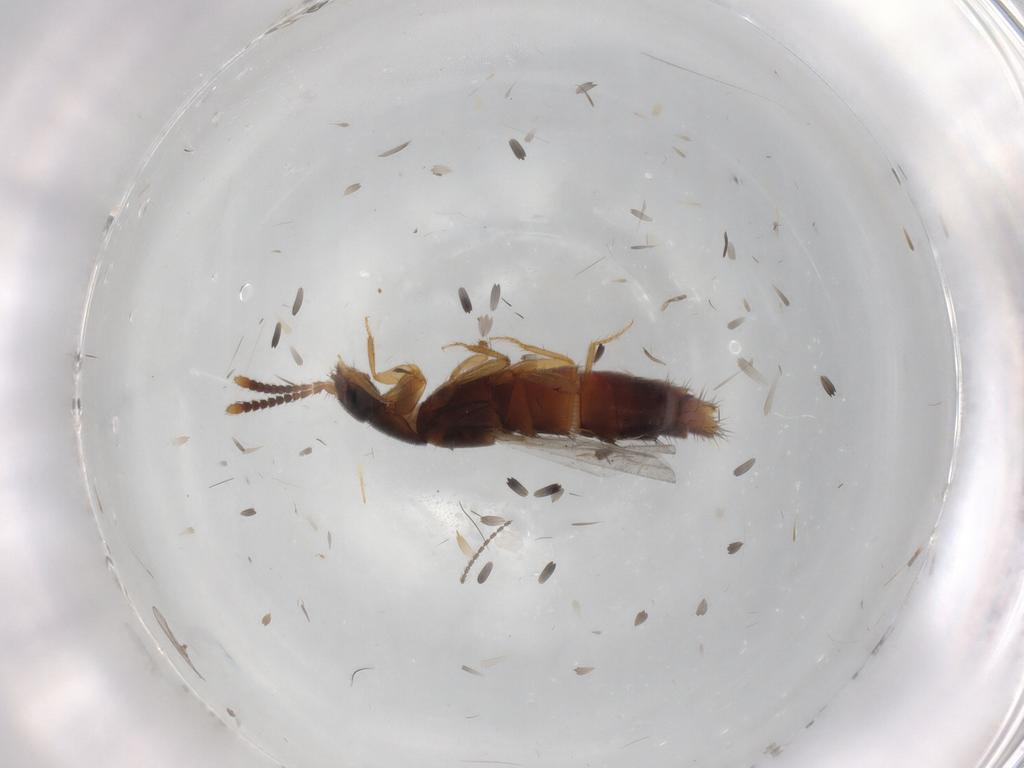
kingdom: Animalia
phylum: Arthropoda
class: Insecta
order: Coleoptera
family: Staphylinidae
